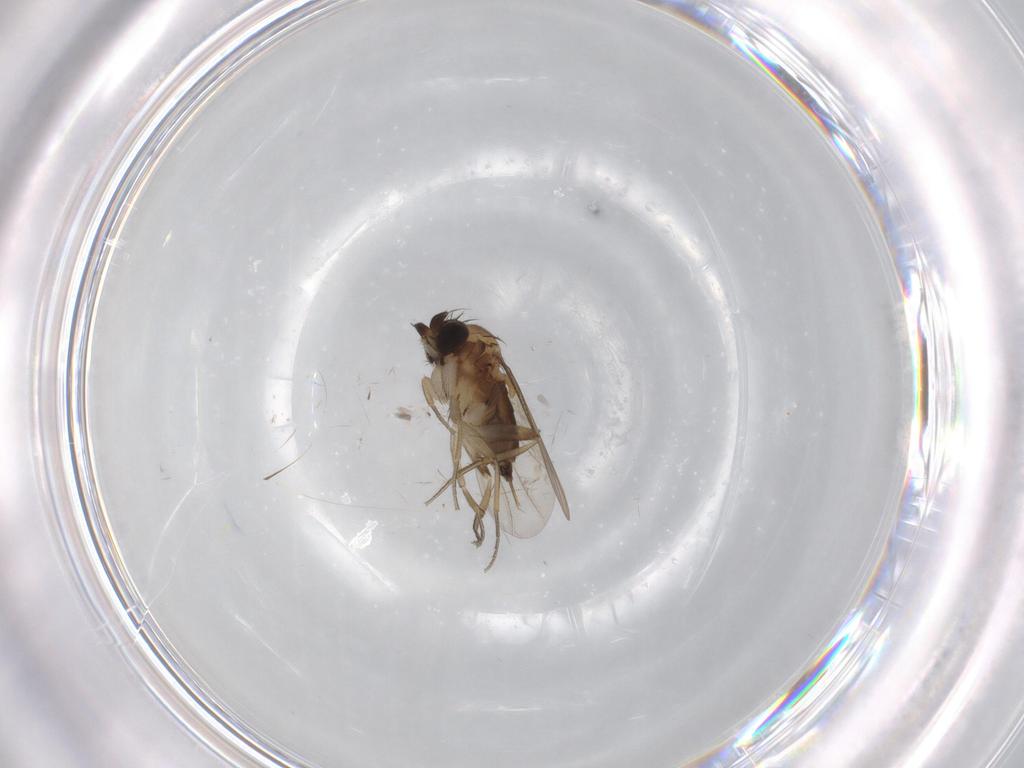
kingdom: Animalia
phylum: Arthropoda
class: Insecta
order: Diptera
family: Phoridae
